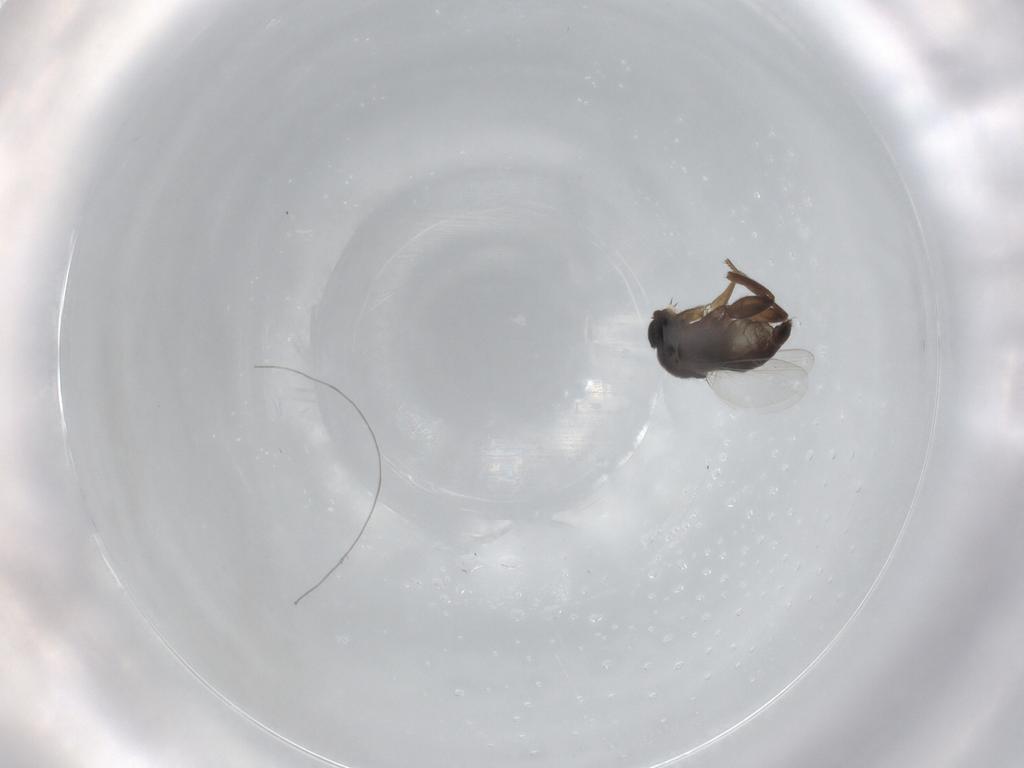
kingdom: Animalia
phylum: Arthropoda
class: Insecta
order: Diptera
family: Phoridae
